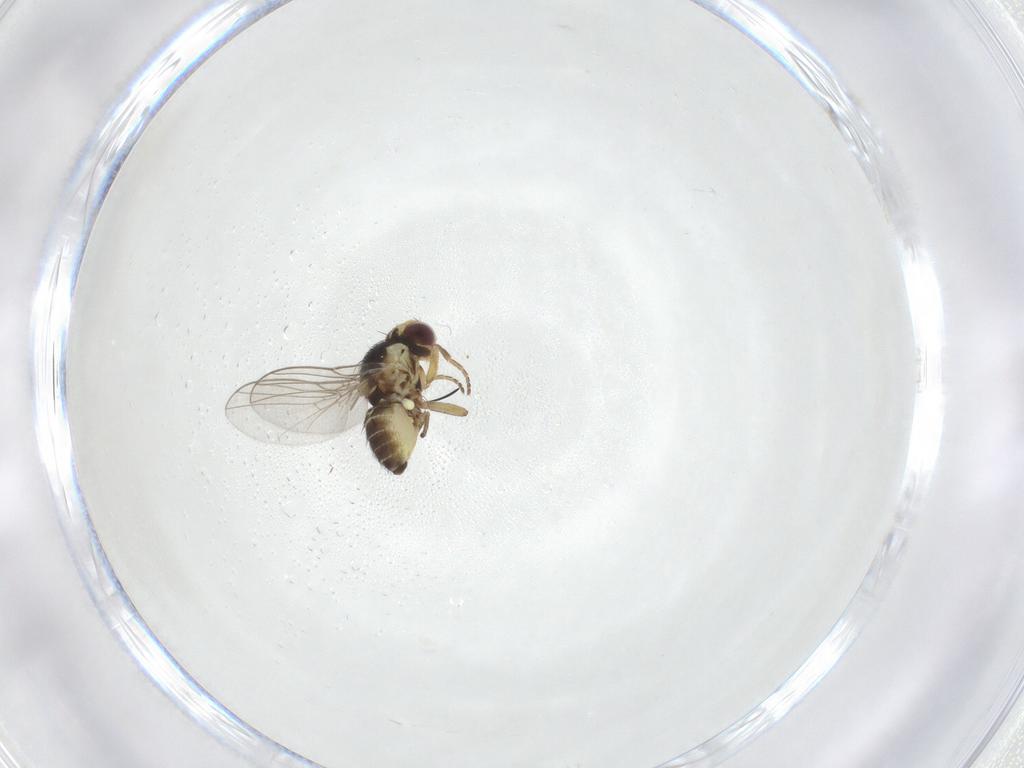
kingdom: Animalia
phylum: Arthropoda
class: Insecta
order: Diptera
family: Agromyzidae
